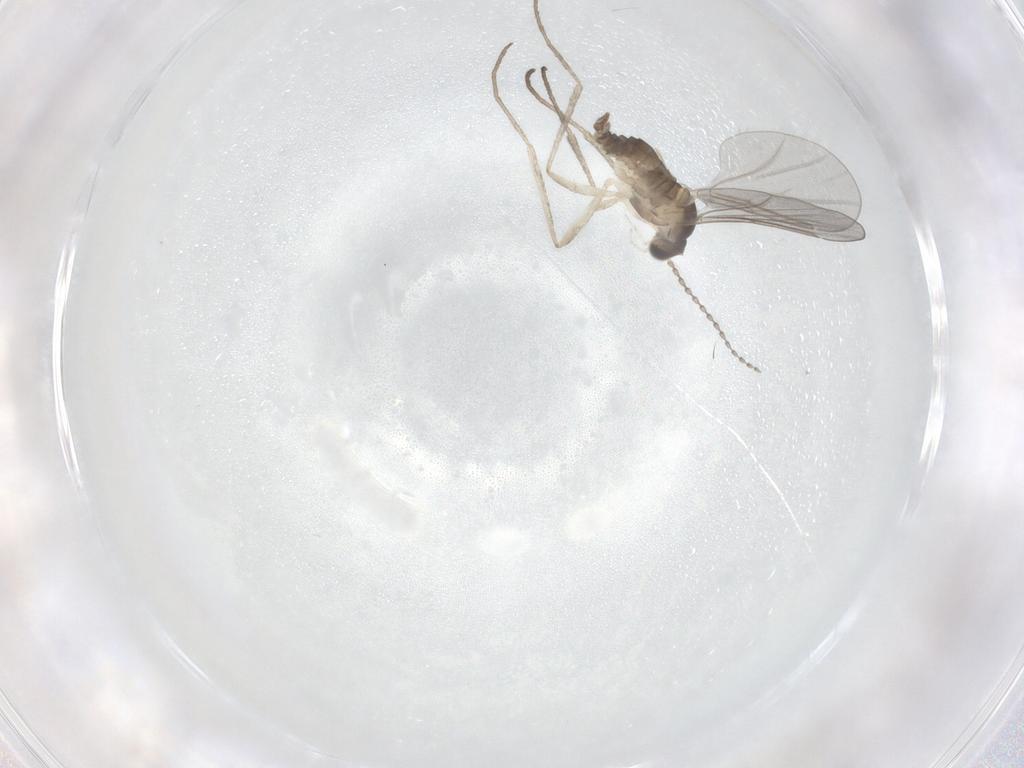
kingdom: Animalia
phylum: Arthropoda
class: Insecta
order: Diptera
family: Cecidomyiidae
